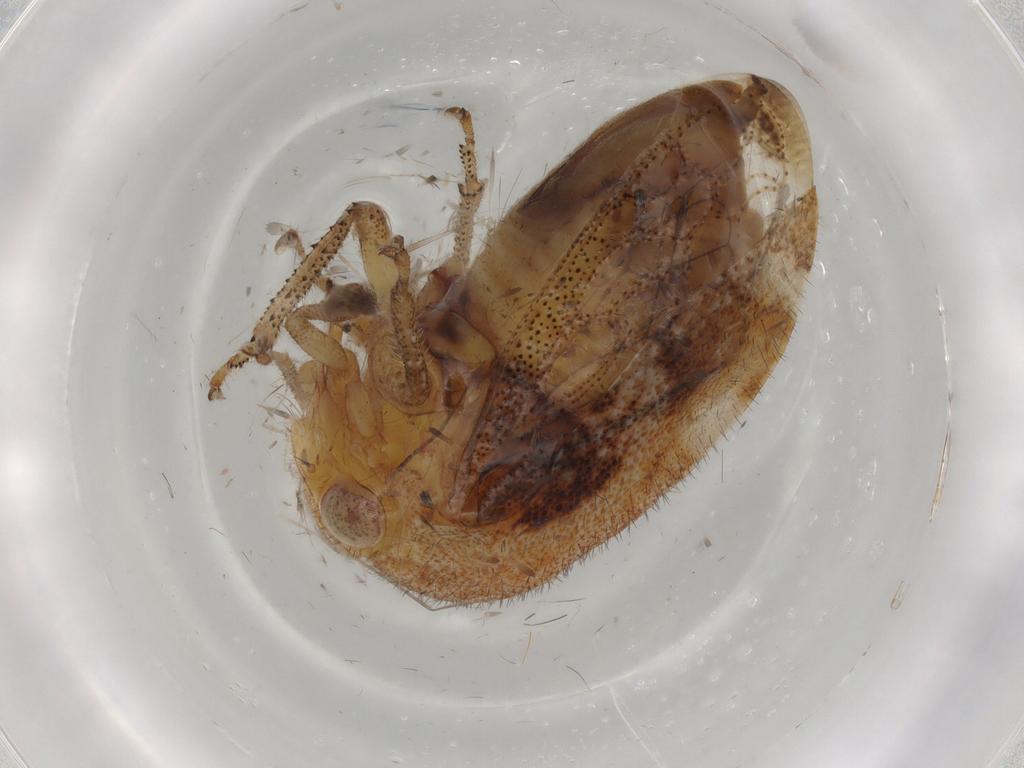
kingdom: Animalia
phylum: Arthropoda
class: Insecta
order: Hemiptera
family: Membracidae
